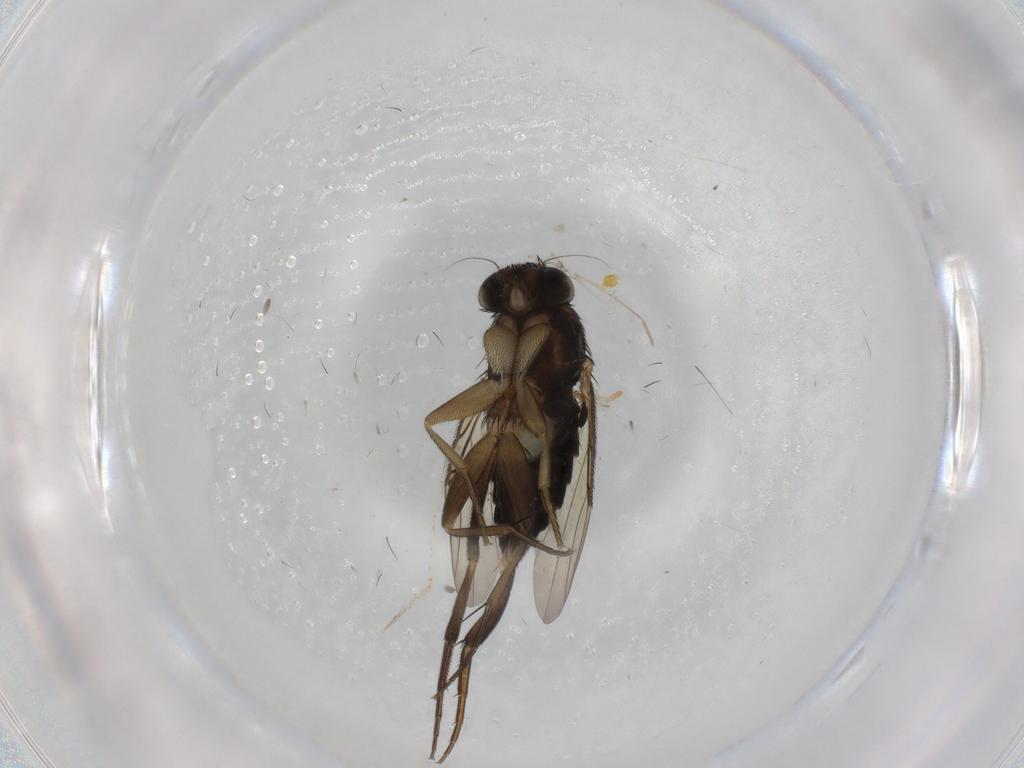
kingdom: Animalia
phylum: Arthropoda
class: Insecta
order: Diptera
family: Phoridae
